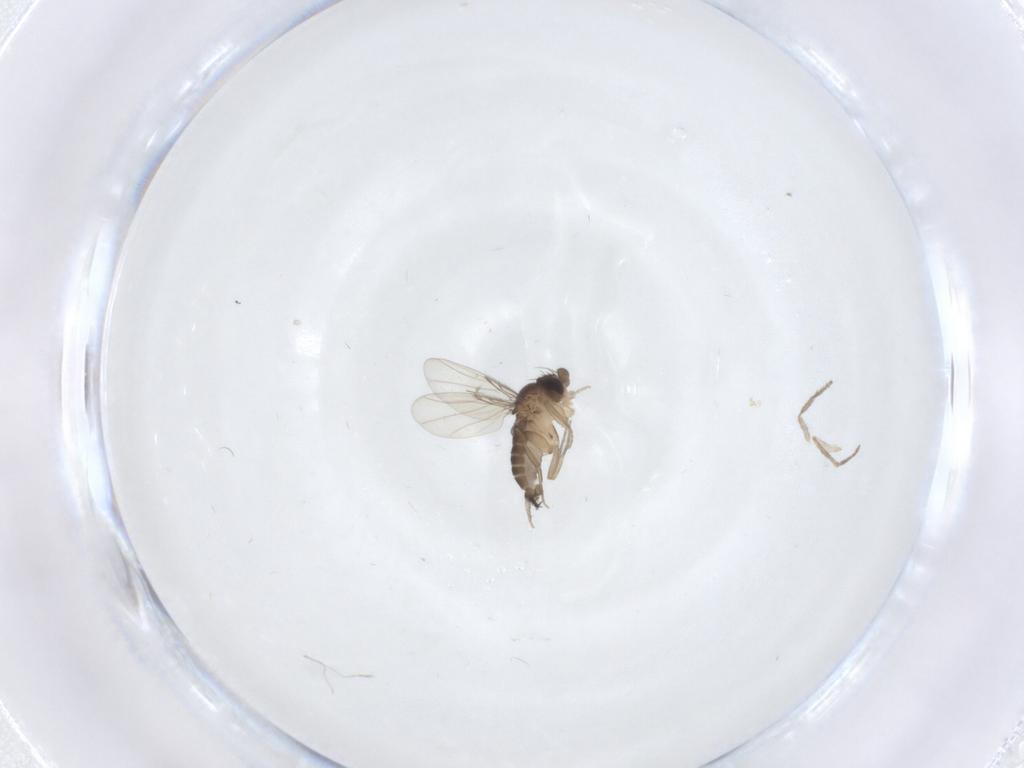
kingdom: Animalia
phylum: Arthropoda
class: Insecta
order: Diptera
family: Phoridae
